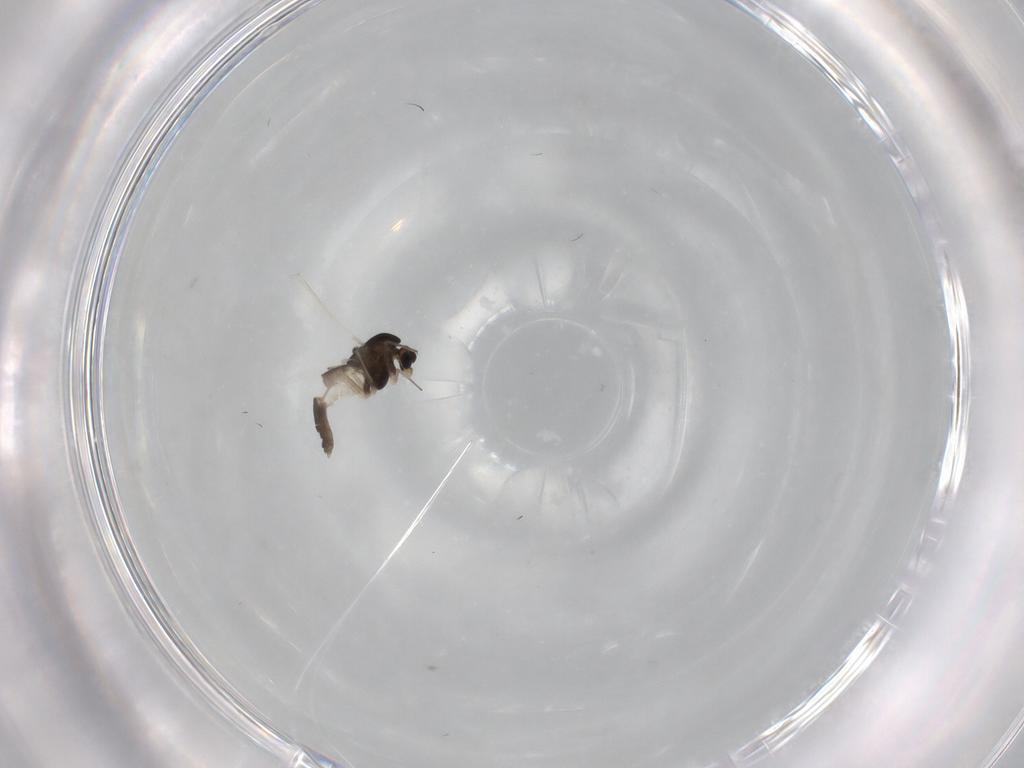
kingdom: Animalia
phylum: Arthropoda
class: Insecta
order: Diptera
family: Chironomidae
